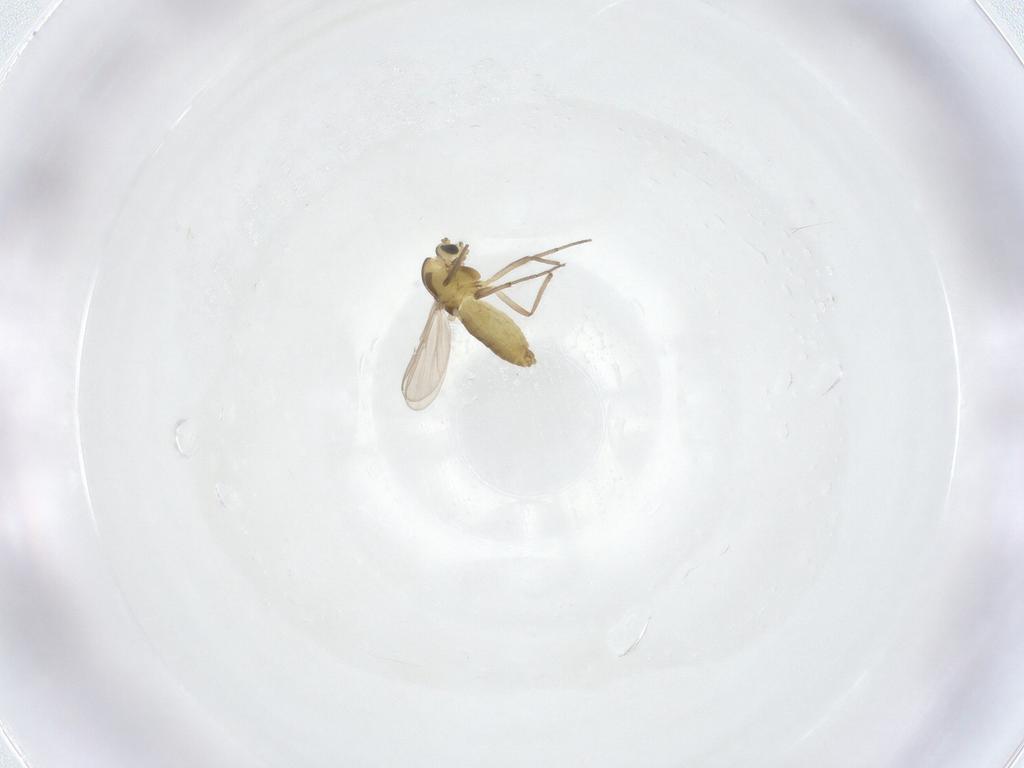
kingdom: Animalia
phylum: Arthropoda
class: Insecta
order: Diptera
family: Chironomidae
